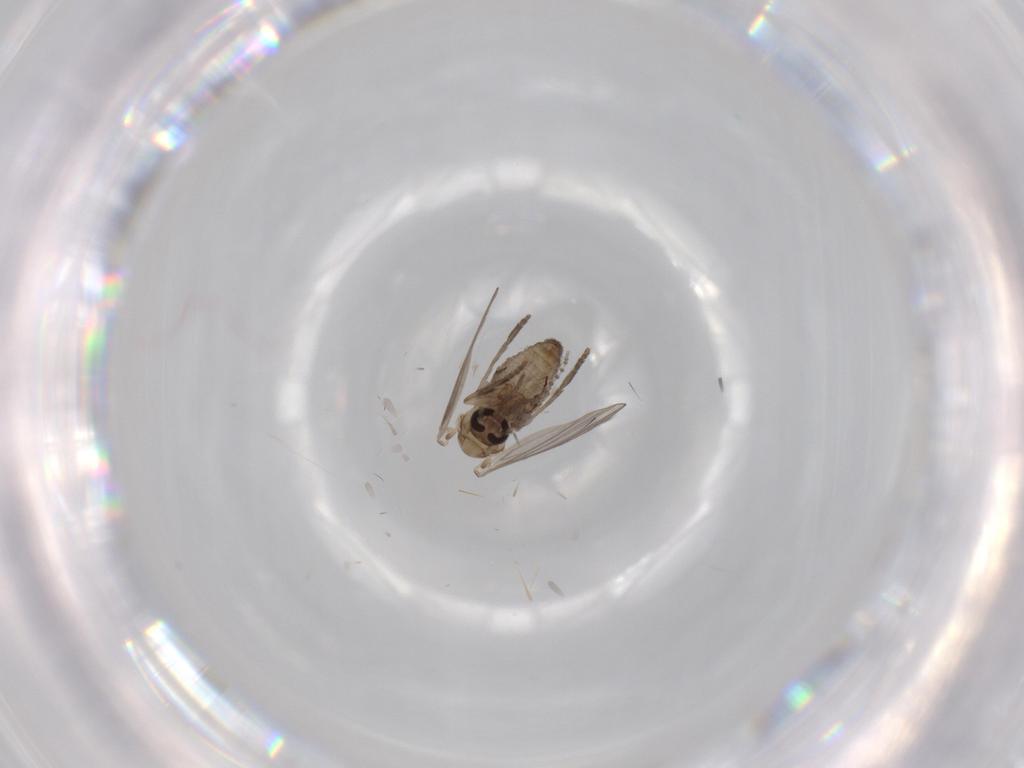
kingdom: Animalia
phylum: Arthropoda
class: Insecta
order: Diptera
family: Psychodidae
